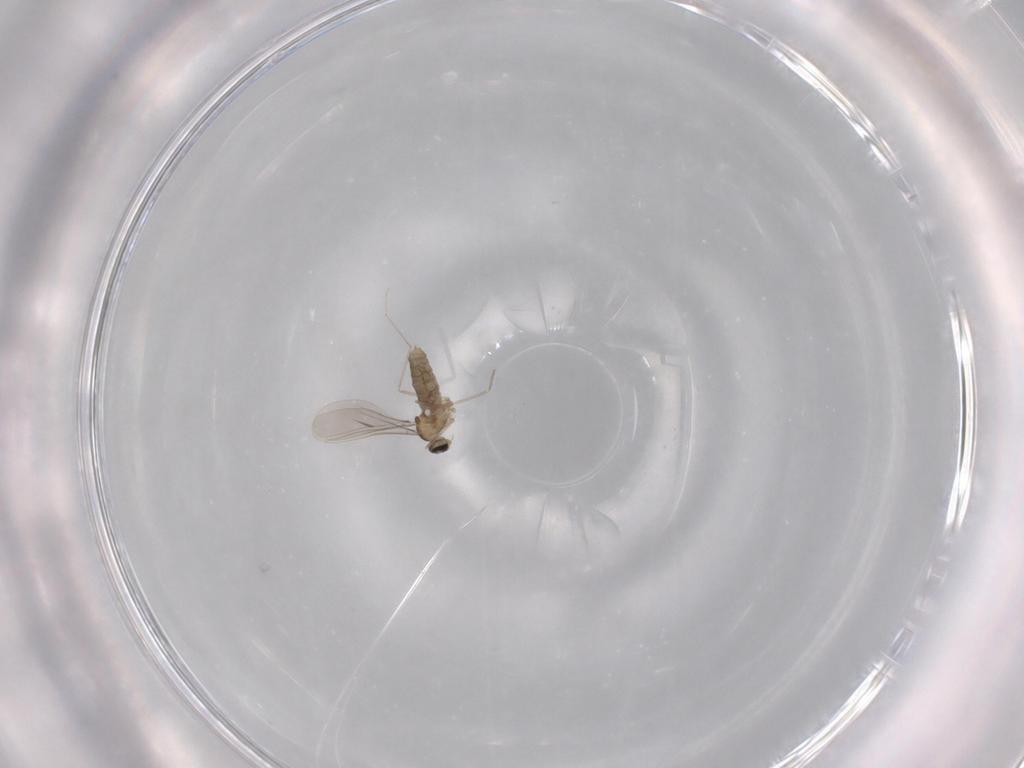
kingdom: Animalia
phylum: Arthropoda
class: Insecta
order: Diptera
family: Cecidomyiidae
